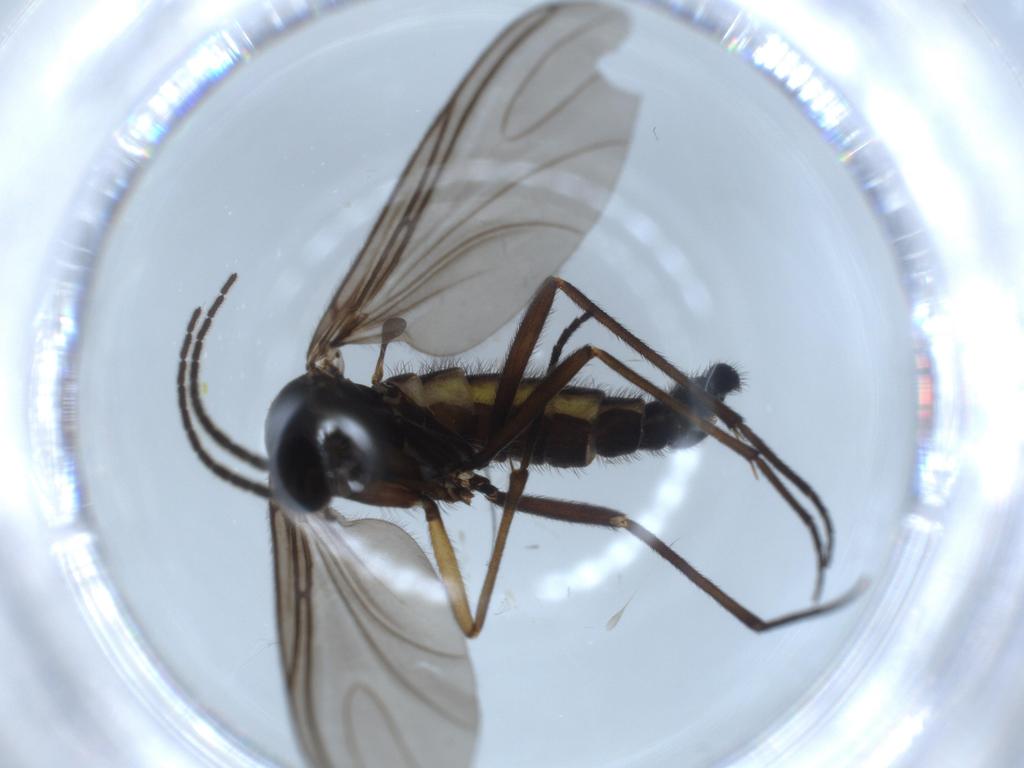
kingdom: Animalia
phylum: Arthropoda
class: Insecta
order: Diptera
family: Sciaridae
